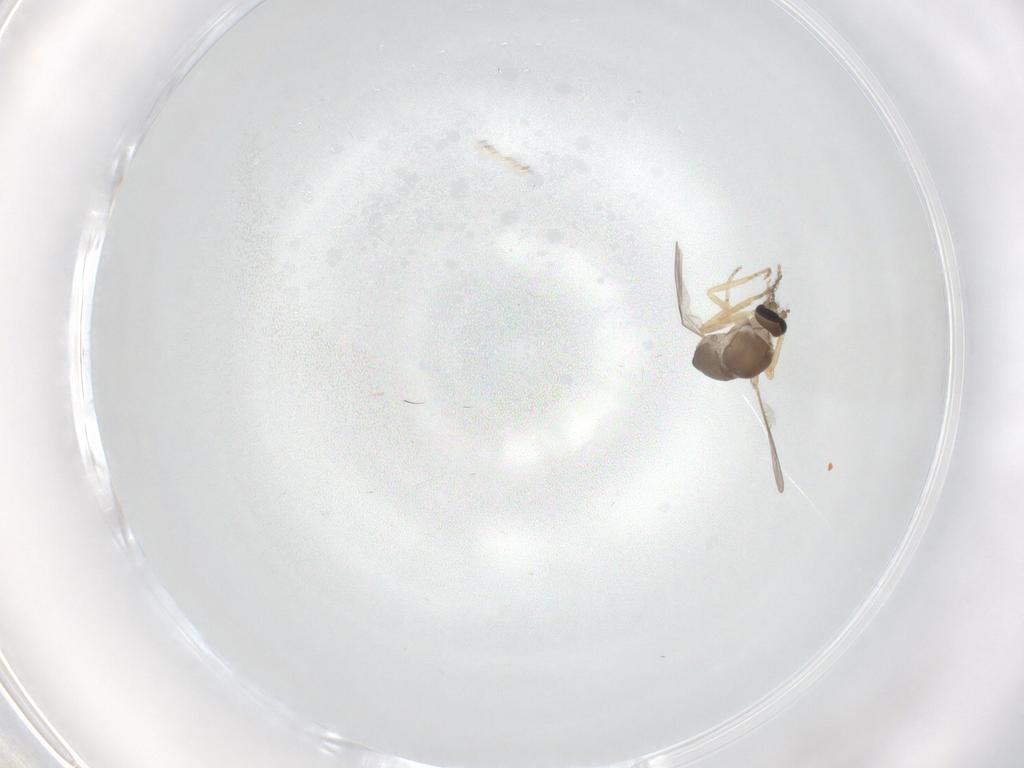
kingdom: Animalia
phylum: Arthropoda
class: Insecta
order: Diptera
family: Ceratopogonidae
